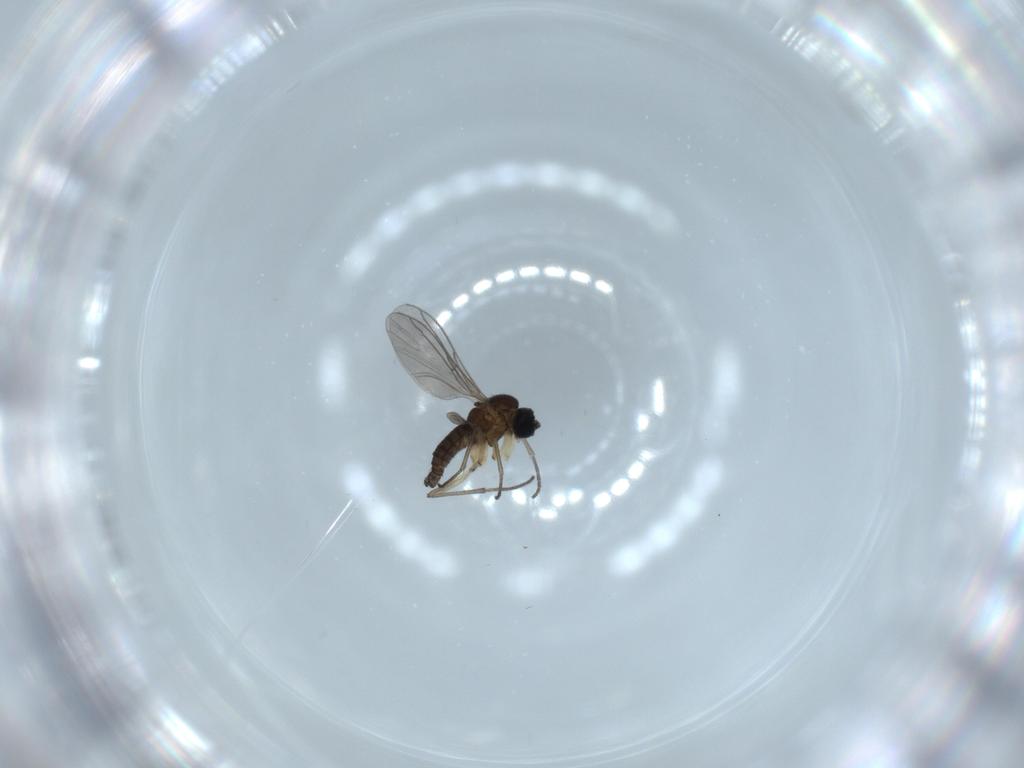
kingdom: Animalia
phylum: Arthropoda
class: Insecta
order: Diptera
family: Sciaridae
